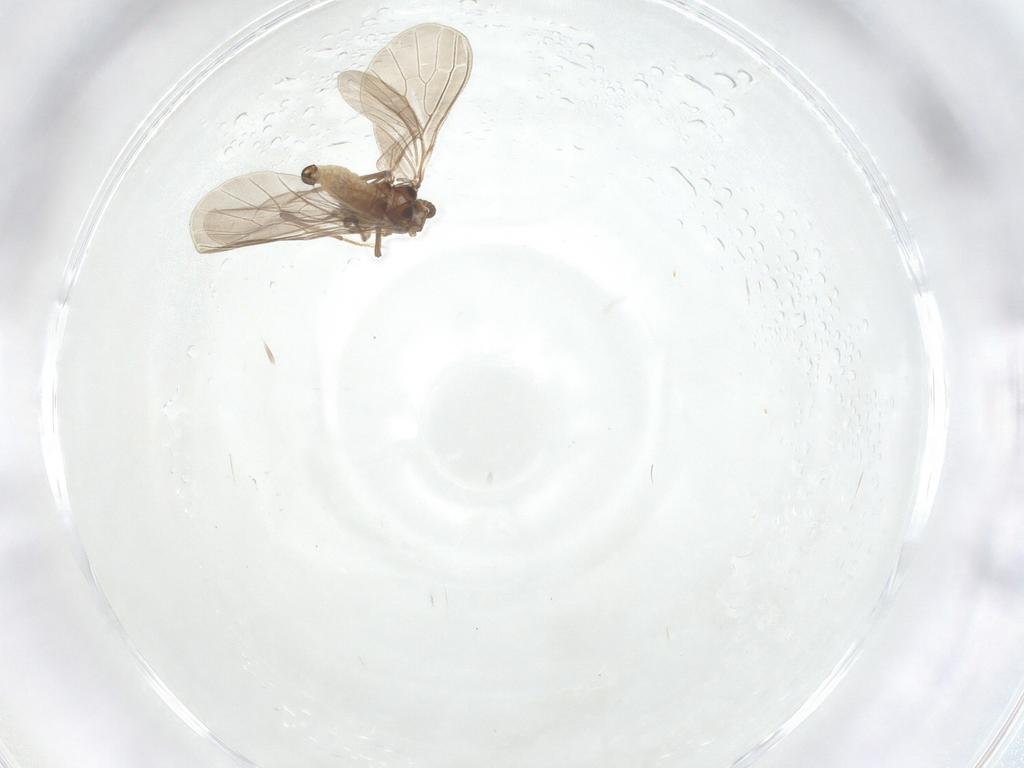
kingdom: Animalia
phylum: Arthropoda
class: Insecta
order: Neuroptera
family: Coniopterygidae
